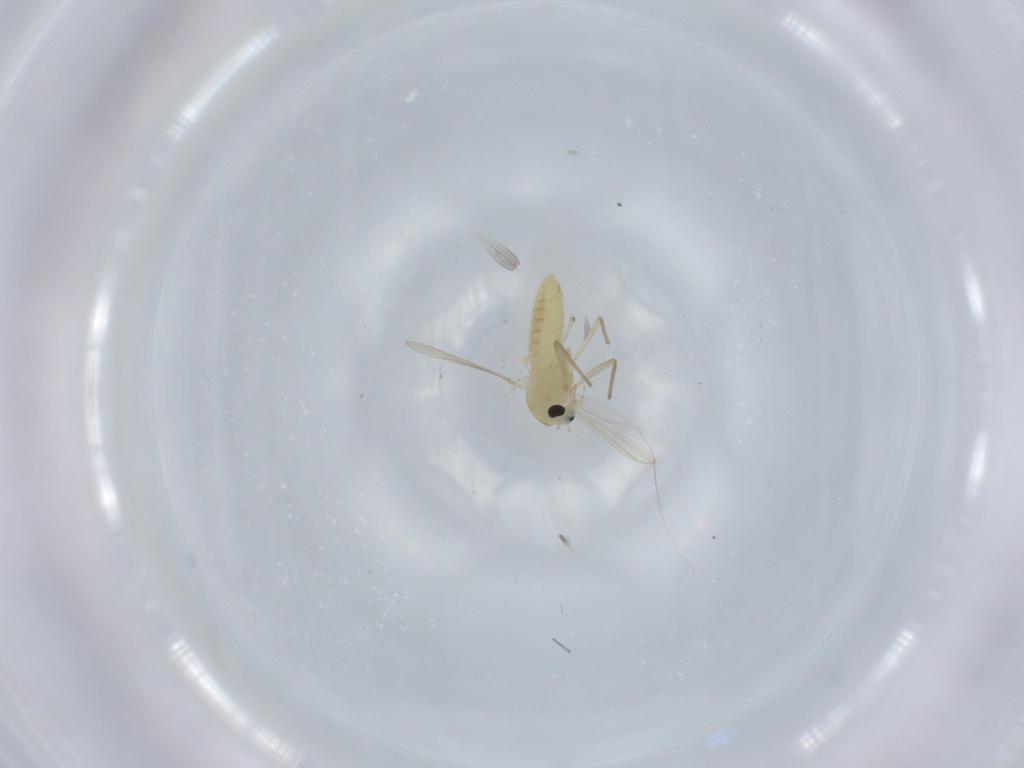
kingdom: Animalia
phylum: Arthropoda
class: Insecta
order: Diptera
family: Chironomidae
